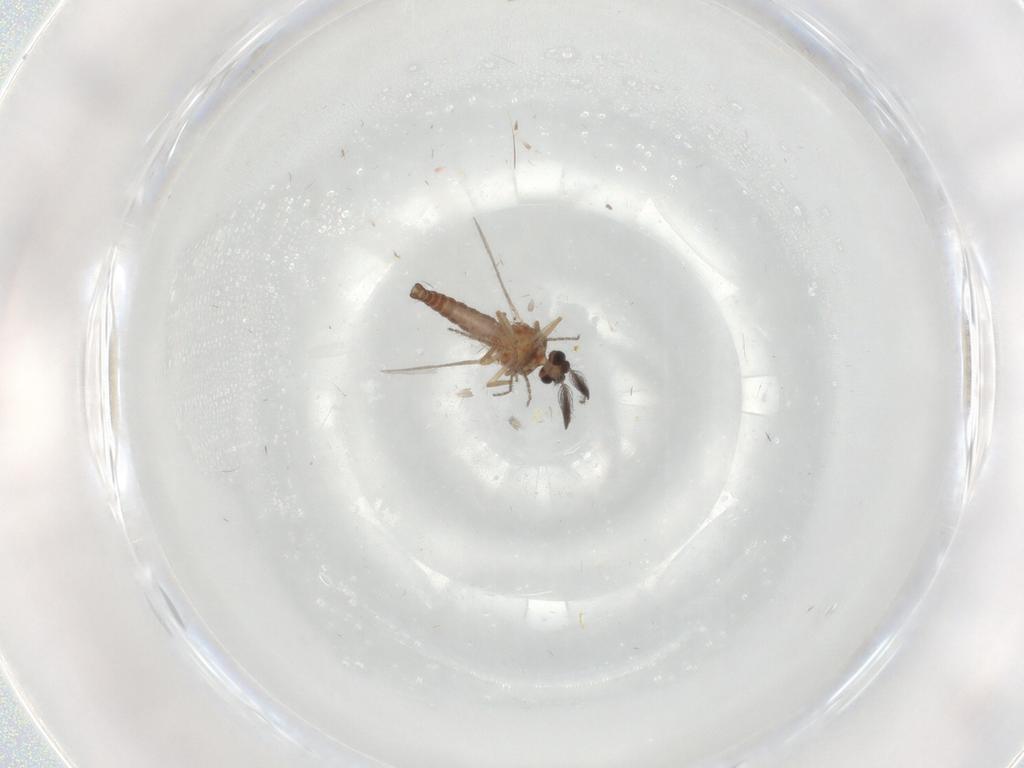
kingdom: Animalia
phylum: Arthropoda
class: Insecta
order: Diptera
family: Ceratopogonidae
